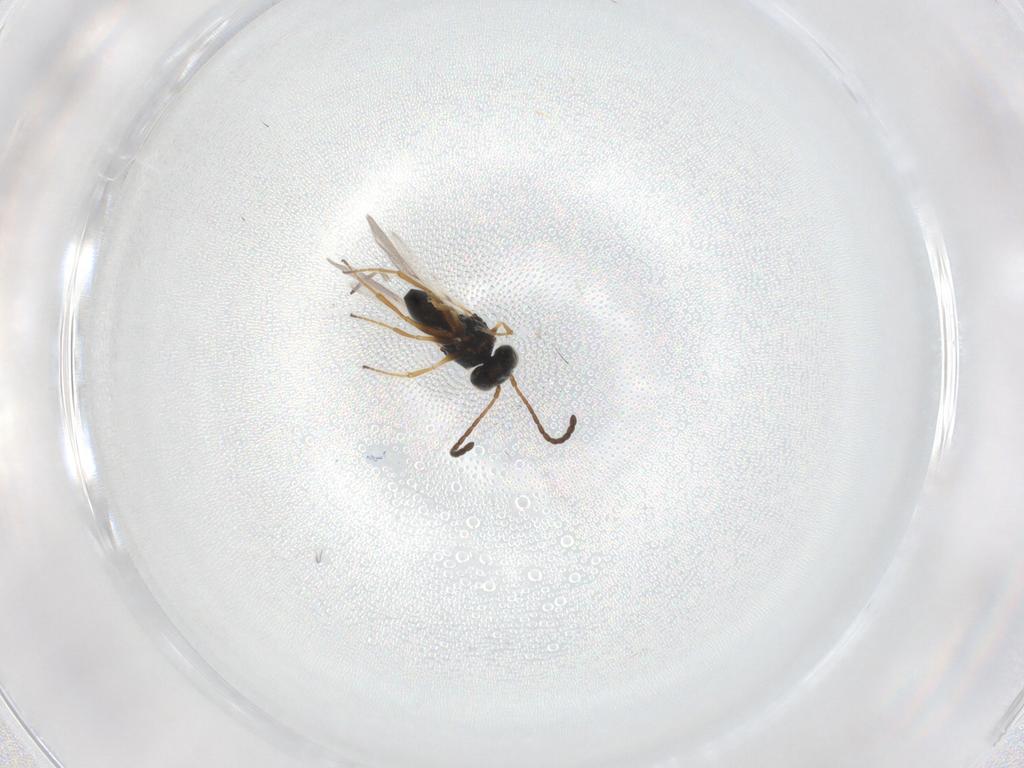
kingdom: Animalia
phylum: Arthropoda
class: Insecta
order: Hymenoptera
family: Figitidae
